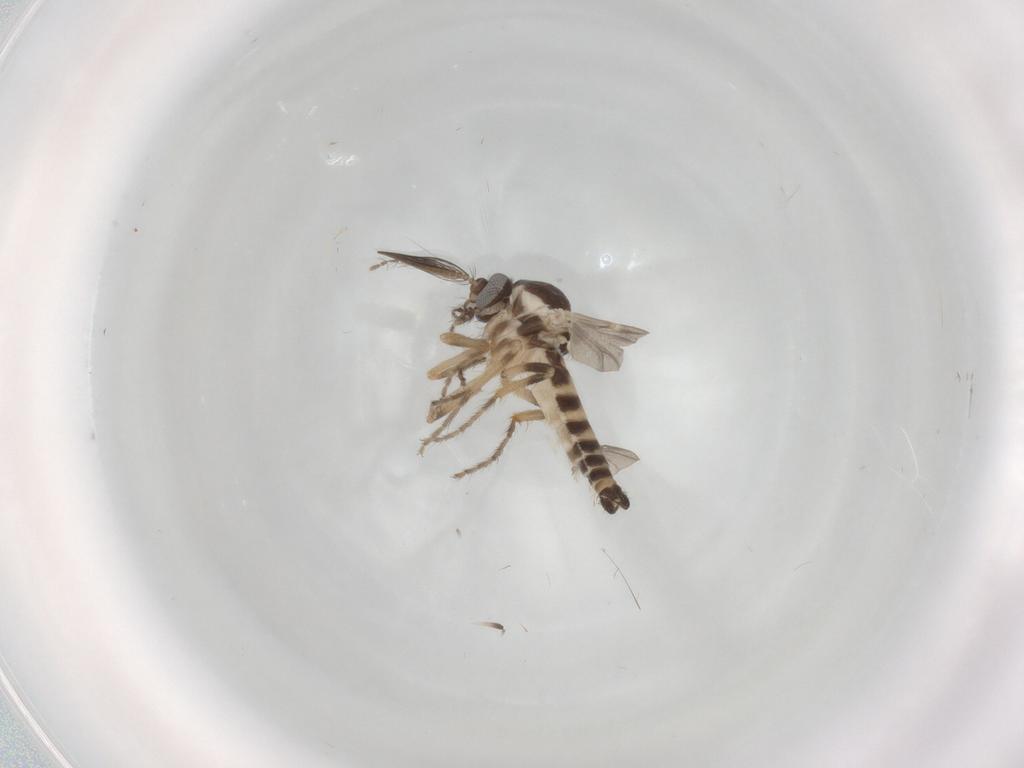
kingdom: Animalia
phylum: Arthropoda
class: Insecta
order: Diptera
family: Ceratopogonidae
